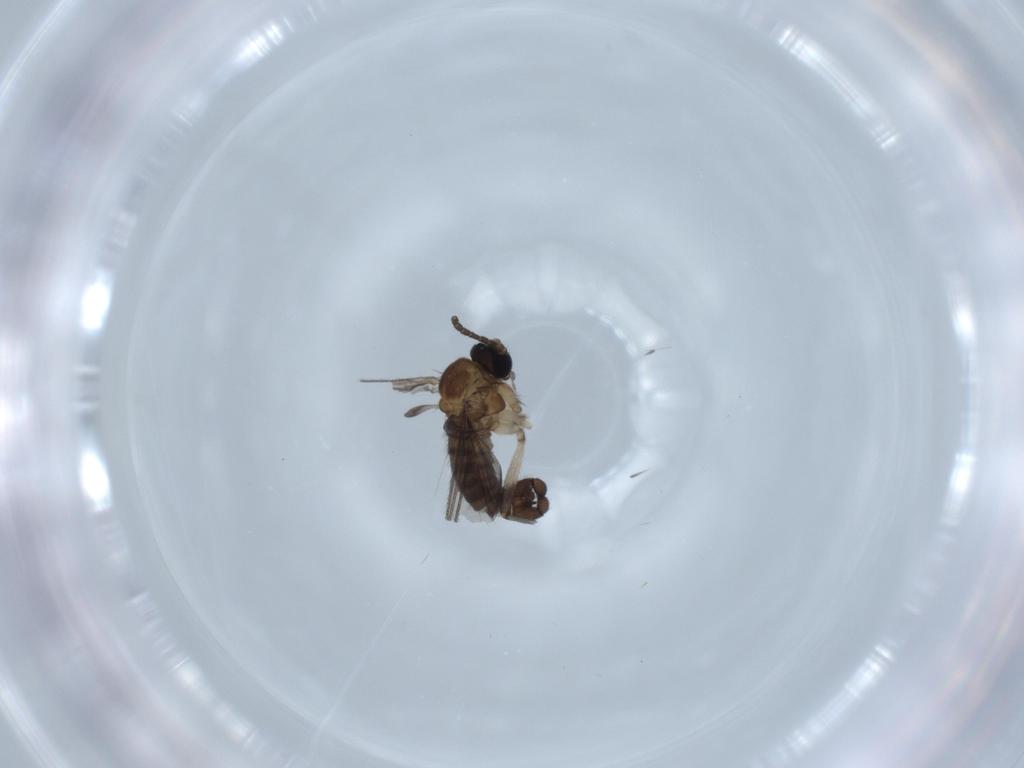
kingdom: Animalia
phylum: Arthropoda
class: Insecta
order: Diptera
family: Sciaridae
